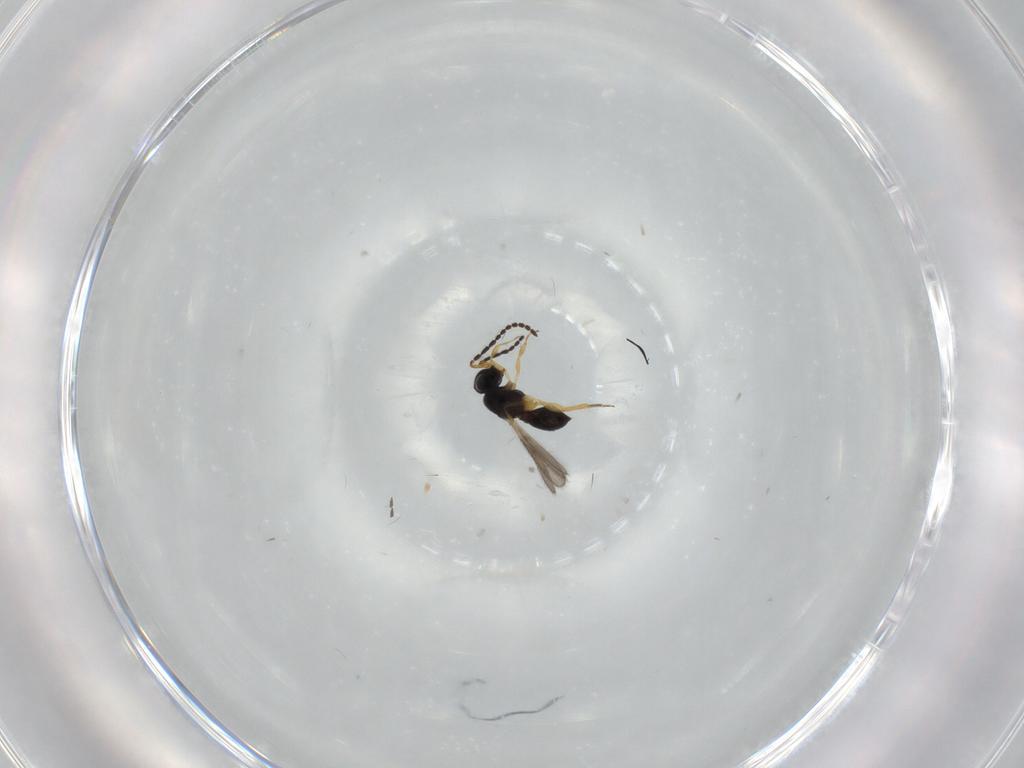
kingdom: Animalia
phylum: Arthropoda
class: Insecta
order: Hymenoptera
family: Scelionidae
